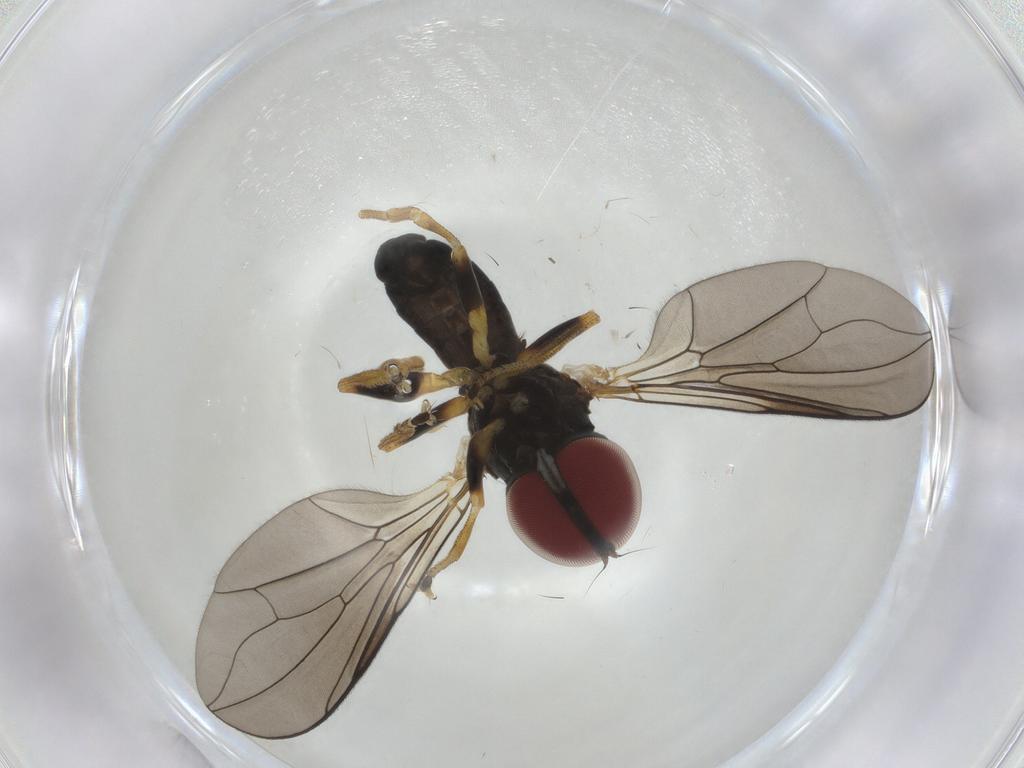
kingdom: Animalia
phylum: Arthropoda
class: Insecta
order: Diptera
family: Pipunculidae
